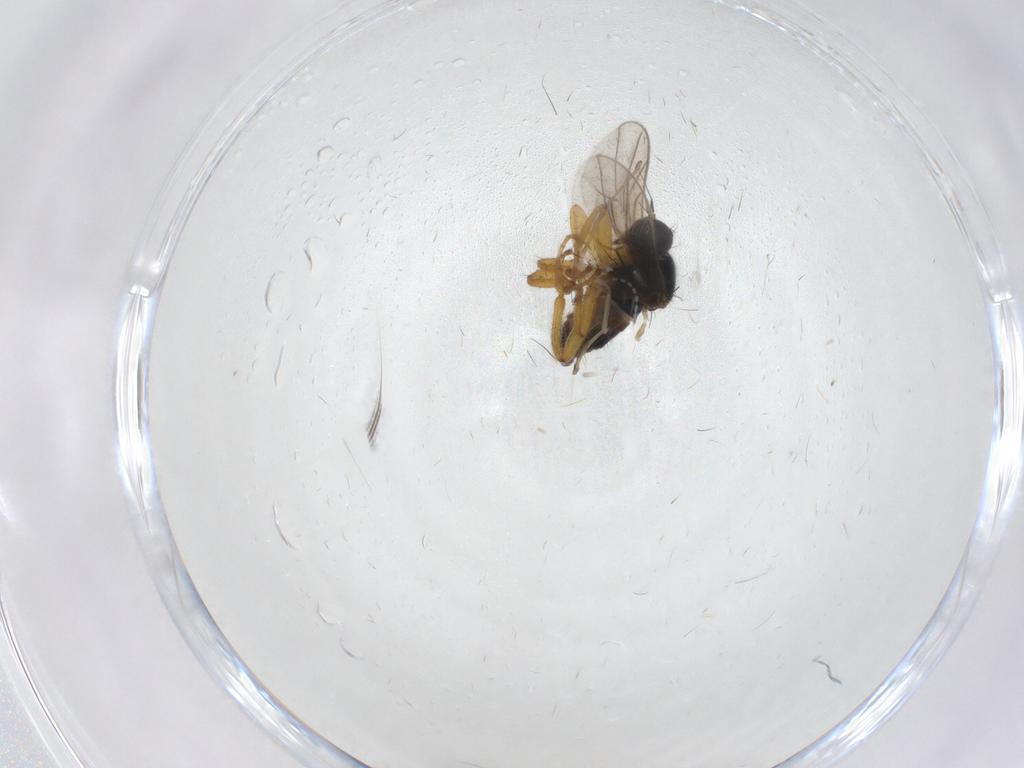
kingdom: Animalia
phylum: Arthropoda
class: Insecta
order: Diptera
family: Hybotidae
